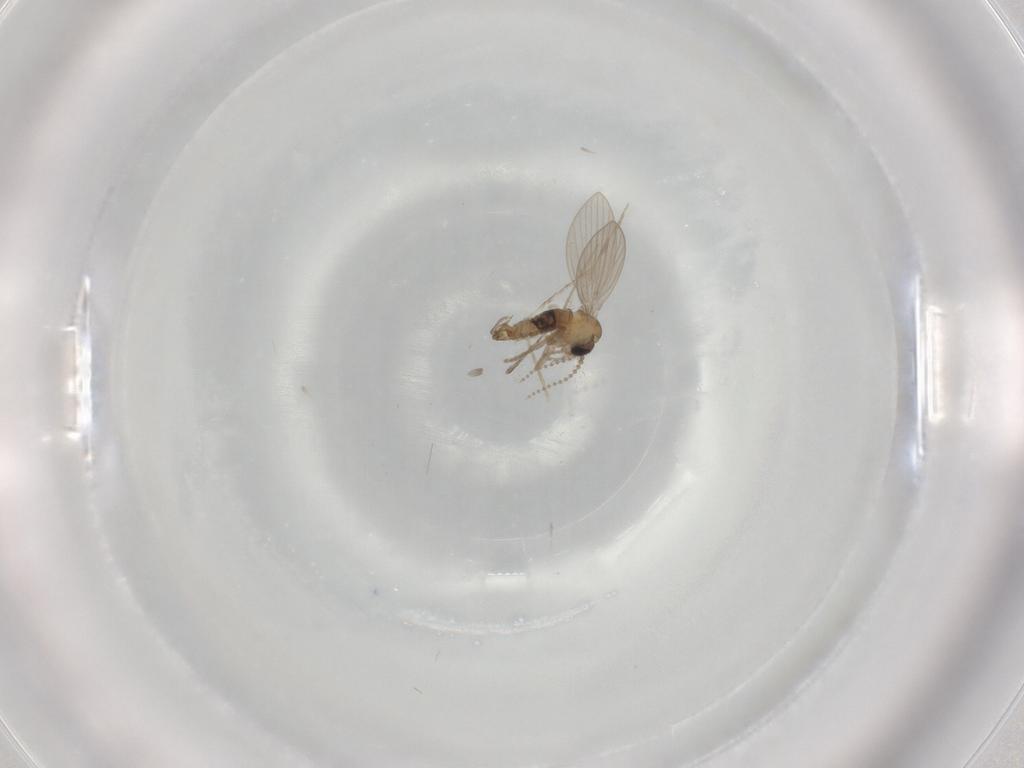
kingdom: Animalia
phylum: Arthropoda
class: Insecta
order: Diptera
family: Psychodidae
